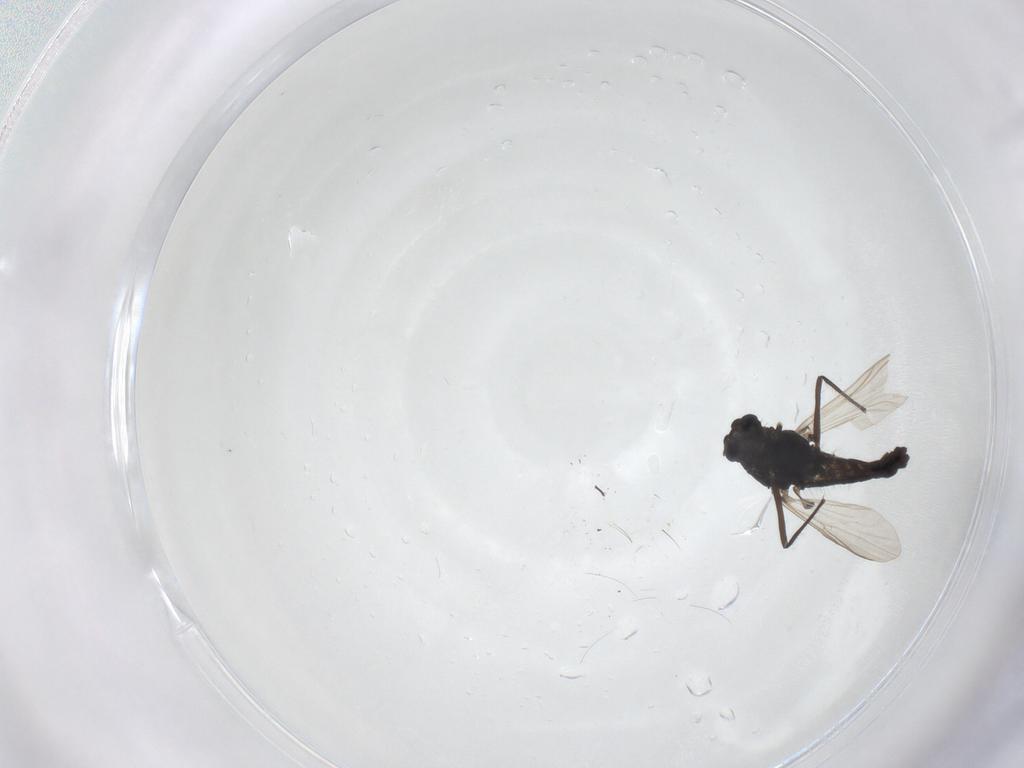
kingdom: Animalia
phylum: Arthropoda
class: Insecta
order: Diptera
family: Chironomidae
